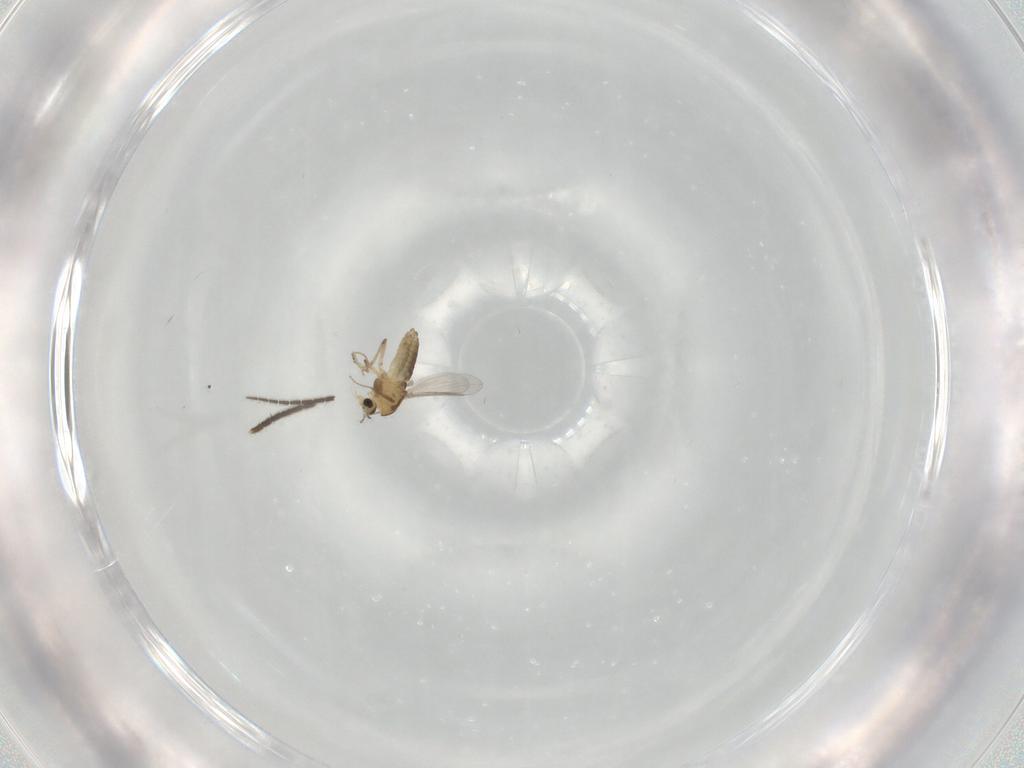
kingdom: Animalia
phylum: Arthropoda
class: Insecta
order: Diptera
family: Sciaridae
